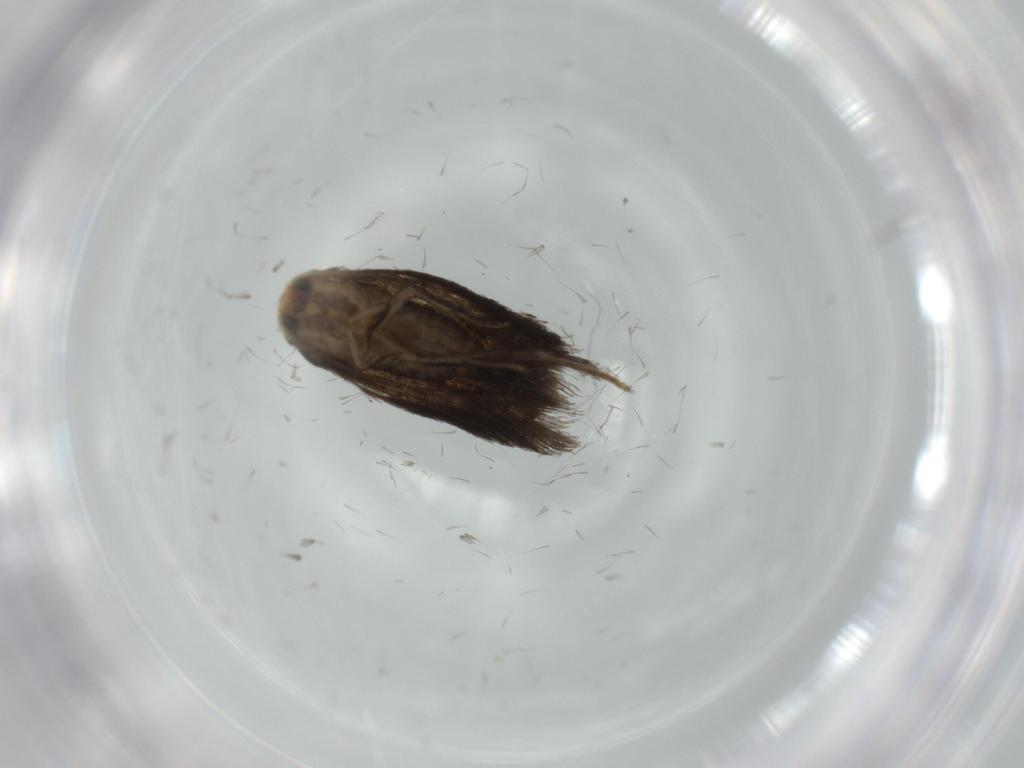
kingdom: Animalia
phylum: Arthropoda
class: Insecta
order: Lepidoptera
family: Nepticulidae
